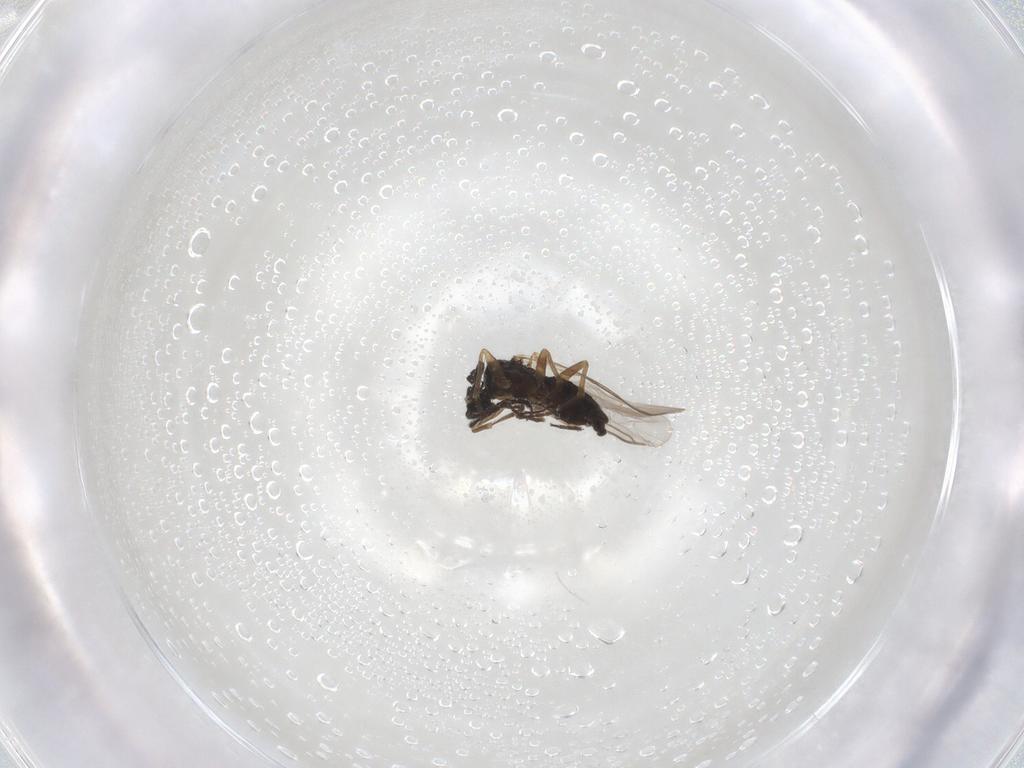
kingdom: Animalia
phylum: Arthropoda
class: Insecta
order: Diptera
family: Sciaridae
